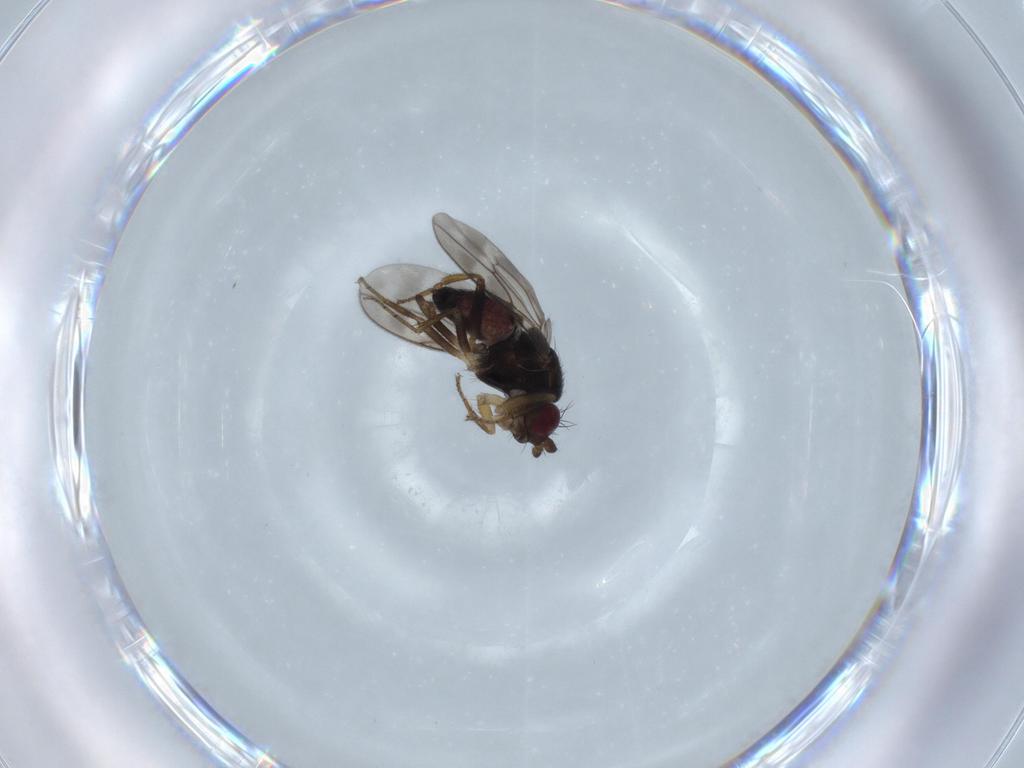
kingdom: Animalia
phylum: Arthropoda
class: Insecta
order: Diptera
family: Sphaeroceridae
